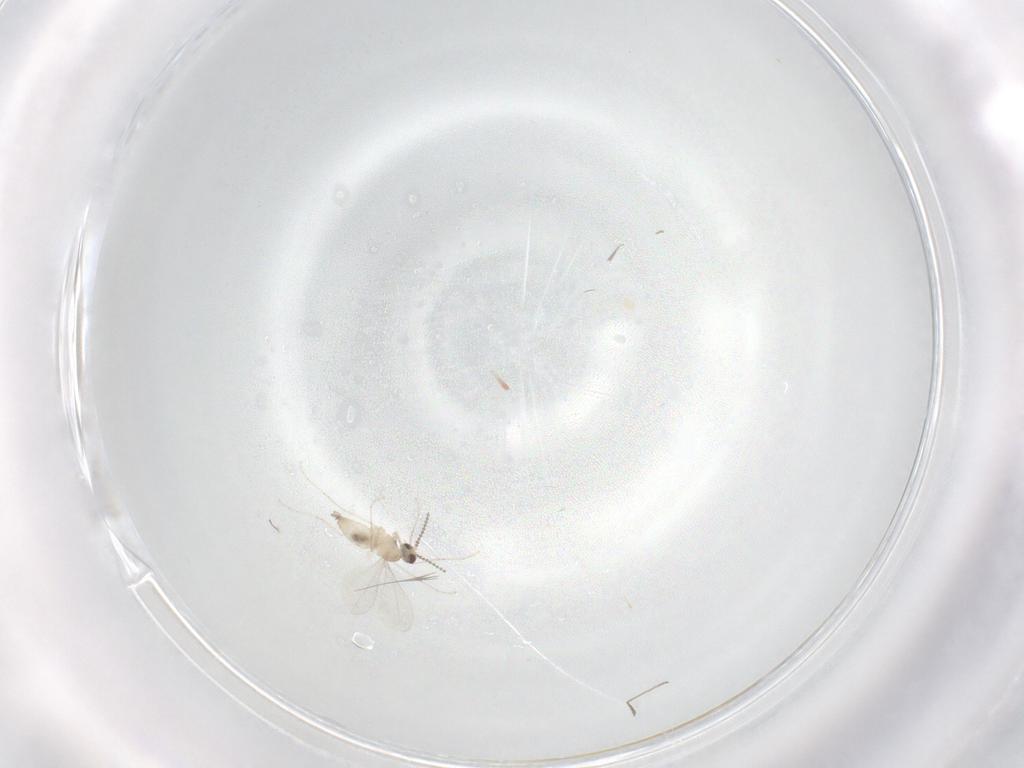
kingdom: Animalia
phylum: Arthropoda
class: Insecta
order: Diptera
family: Cecidomyiidae
